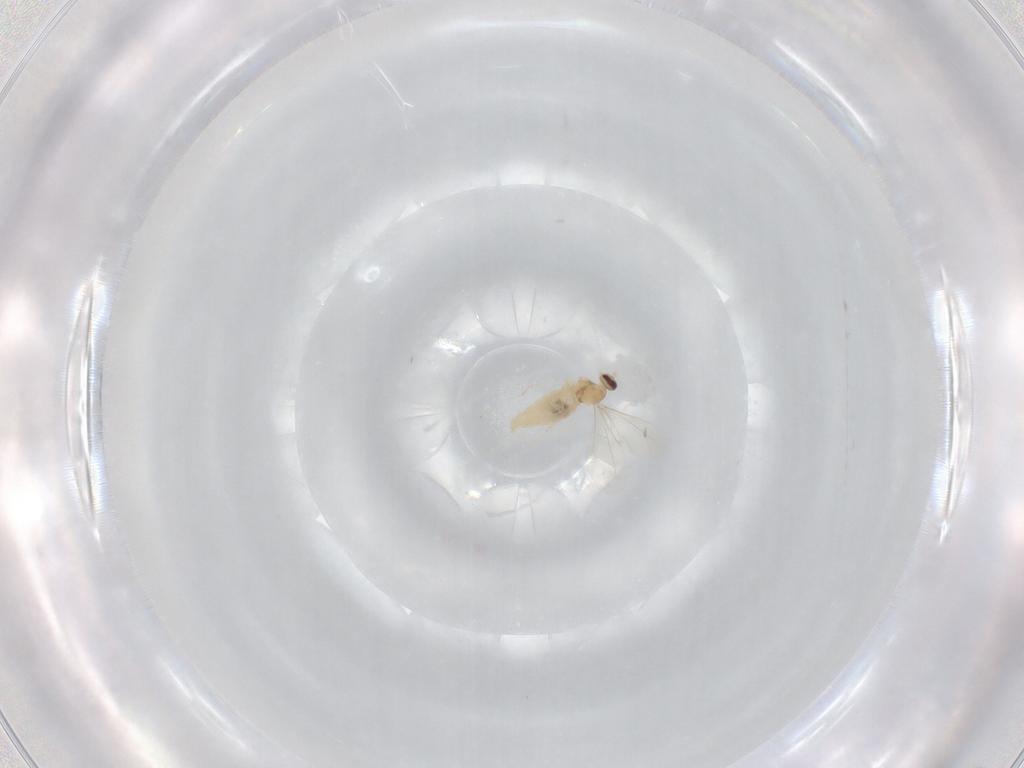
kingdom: Animalia
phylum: Arthropoda
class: Insecta
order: Diptera
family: Cecidomyiidae
